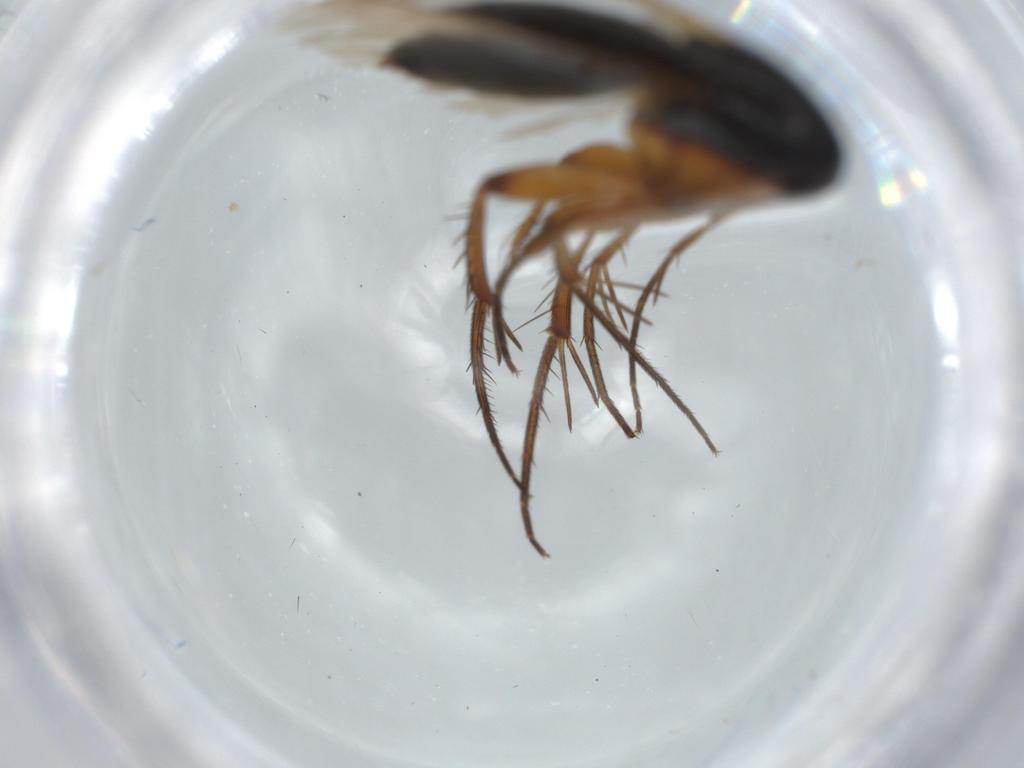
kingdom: Animalia
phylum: Arthropoda
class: Insecta
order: Diptera
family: Mycetophilidae
